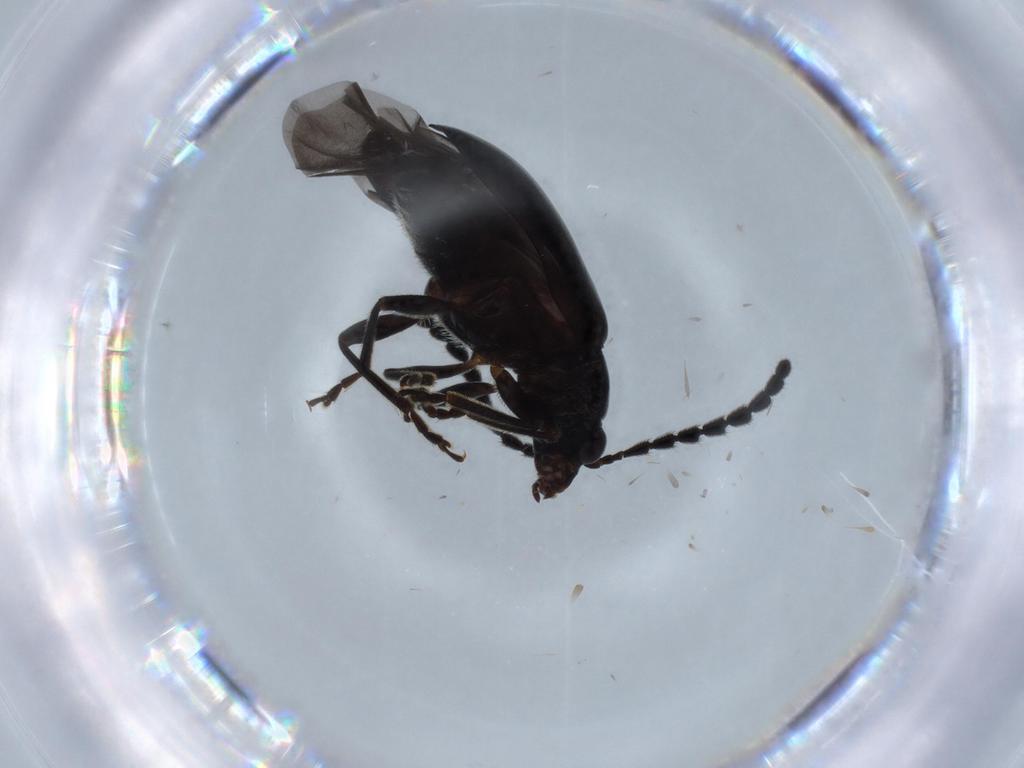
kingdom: Animalia
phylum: Arthropoda
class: Insecta
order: Coleoptera
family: Chrysomelidae
